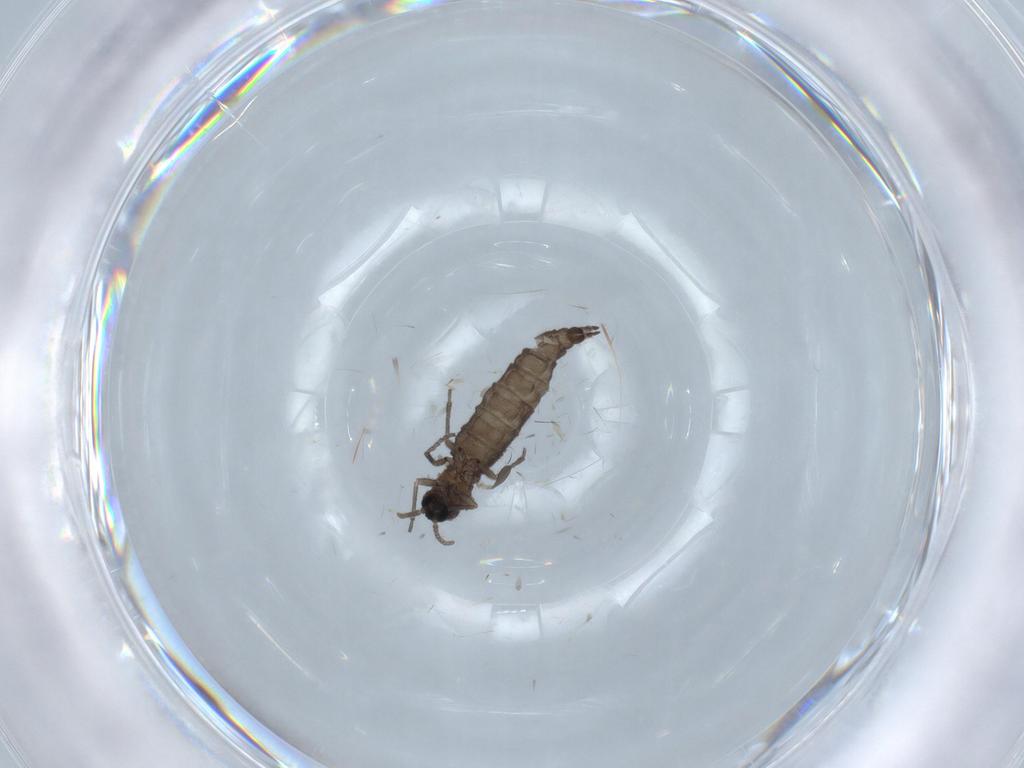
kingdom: Animalia
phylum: Arthropoda
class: Insecta
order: Diptera
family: Sciaridae
